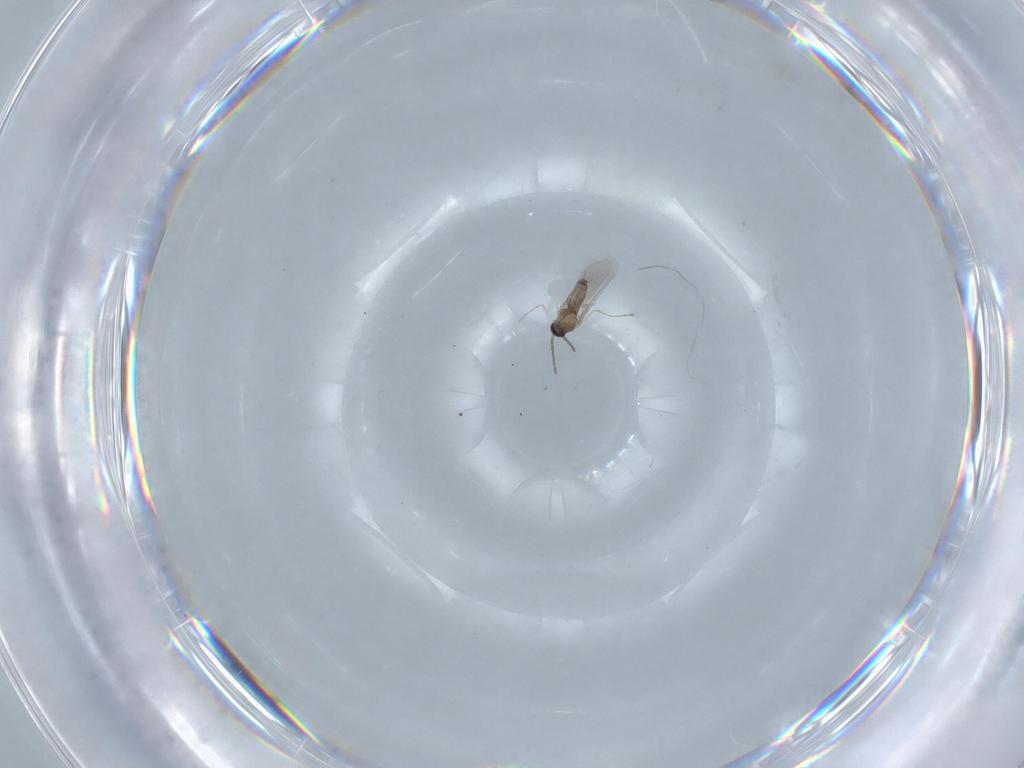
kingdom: Animalia
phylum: Arthropoda
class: Insecta
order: Diptera
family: Cecidomyiidae
